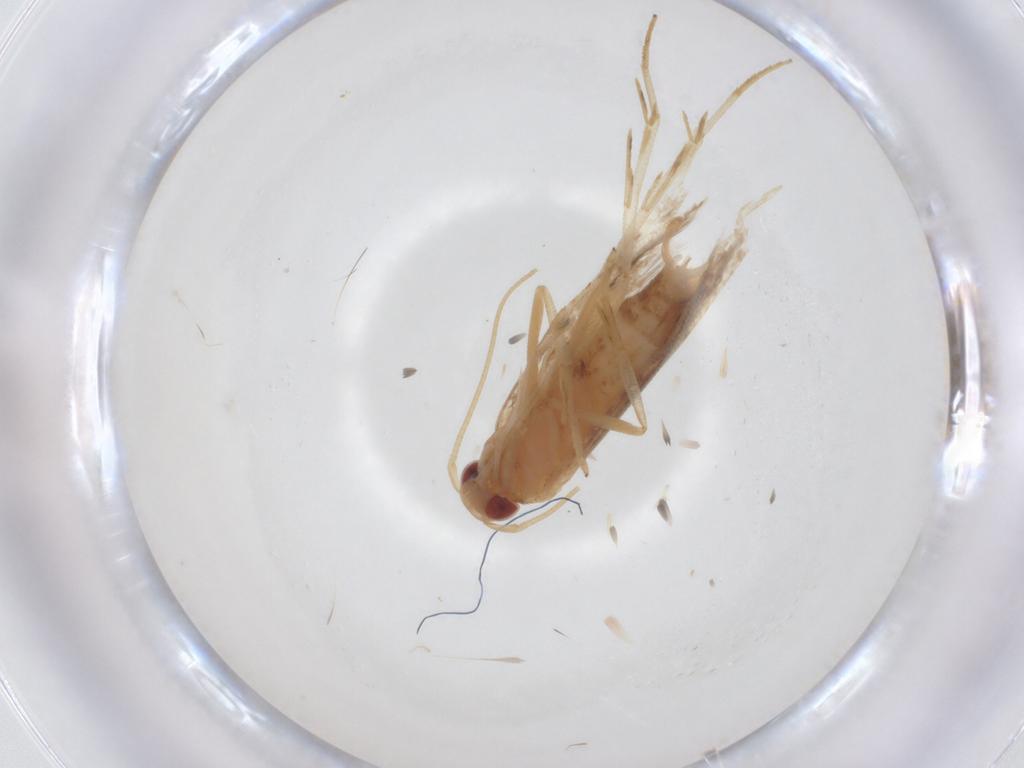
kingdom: Animalia
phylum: Arthropoda
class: Insecta
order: Lepidoptera
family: Cosmopterigidae
